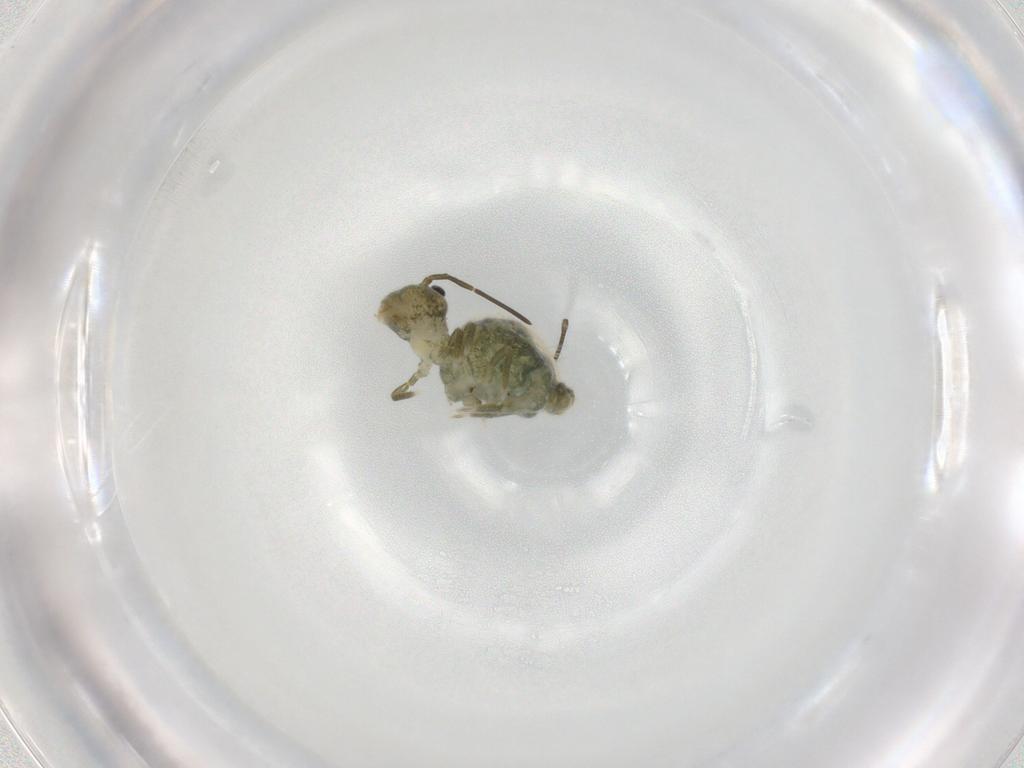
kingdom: Animalia
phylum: Arthropoda
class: Collembola
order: Symphypleona
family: Sminthuridae
